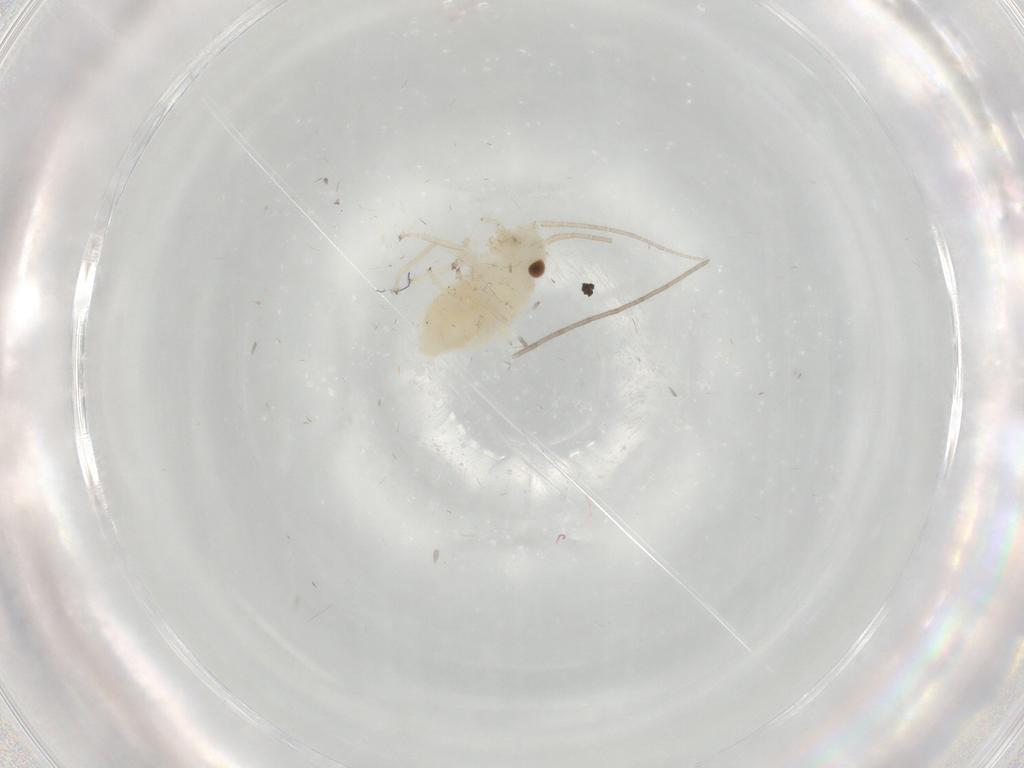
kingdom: Animalia
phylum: Arthropoda
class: Insecta
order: Psocodea
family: Caeciliusidae
